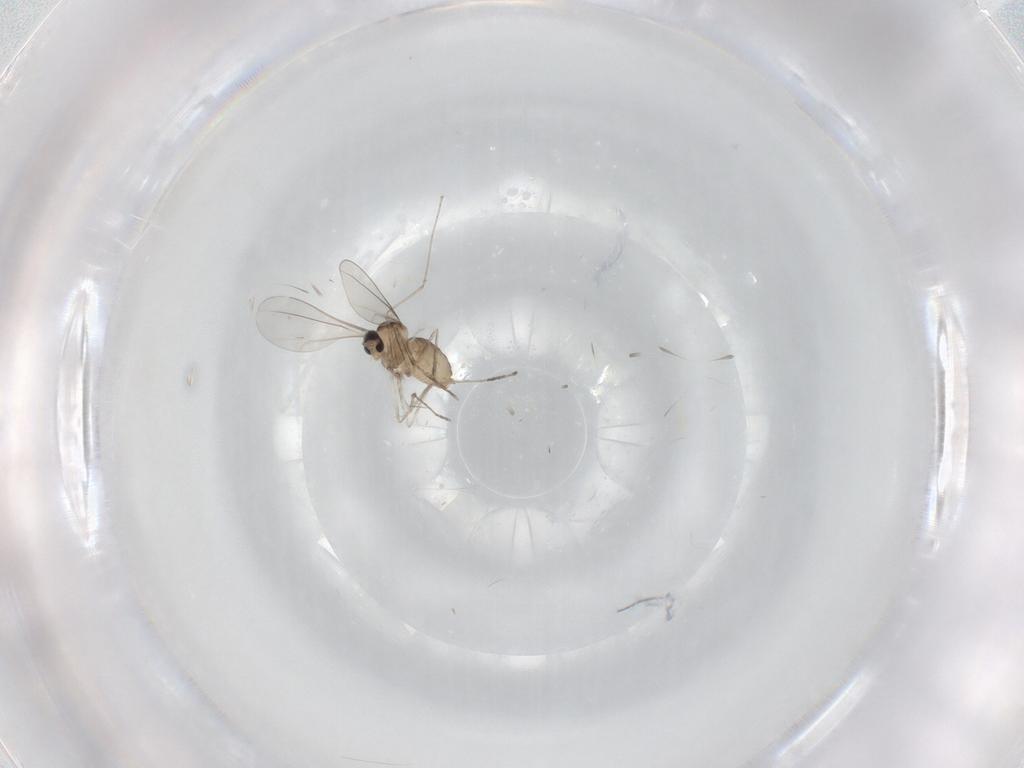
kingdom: Animalia
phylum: Arthropoda
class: Insecta
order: Diptera
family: Cecidomyiidae
